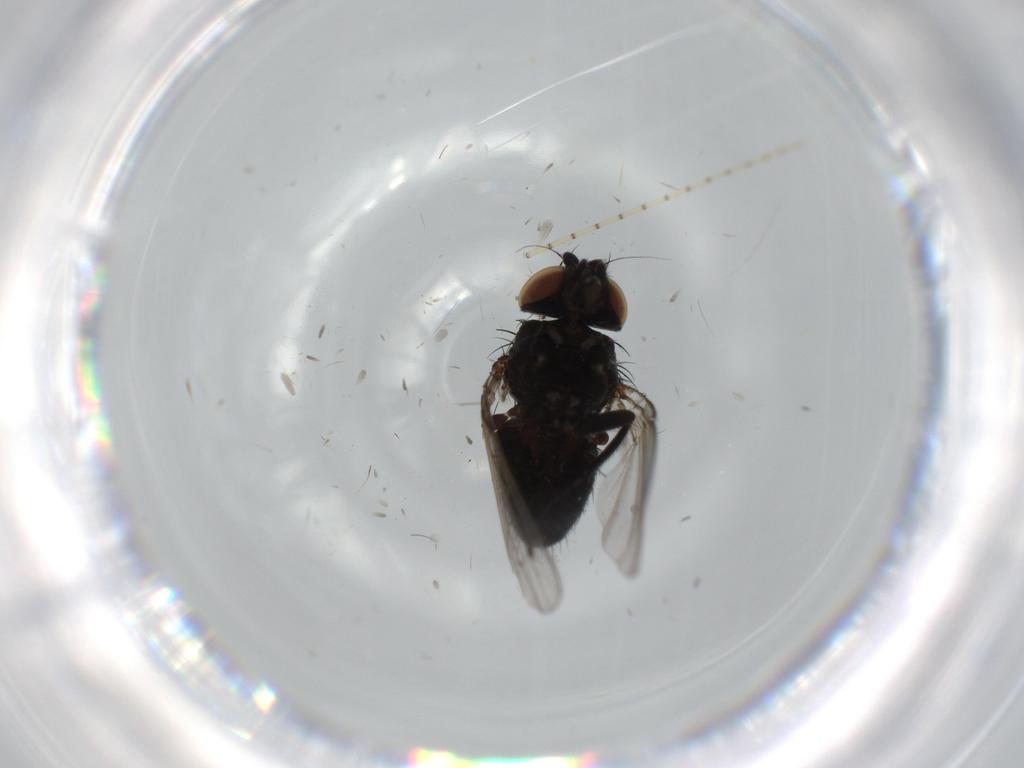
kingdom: Animalia
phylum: Arthropoda
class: Insecta
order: Diptera
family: Milichiidae
